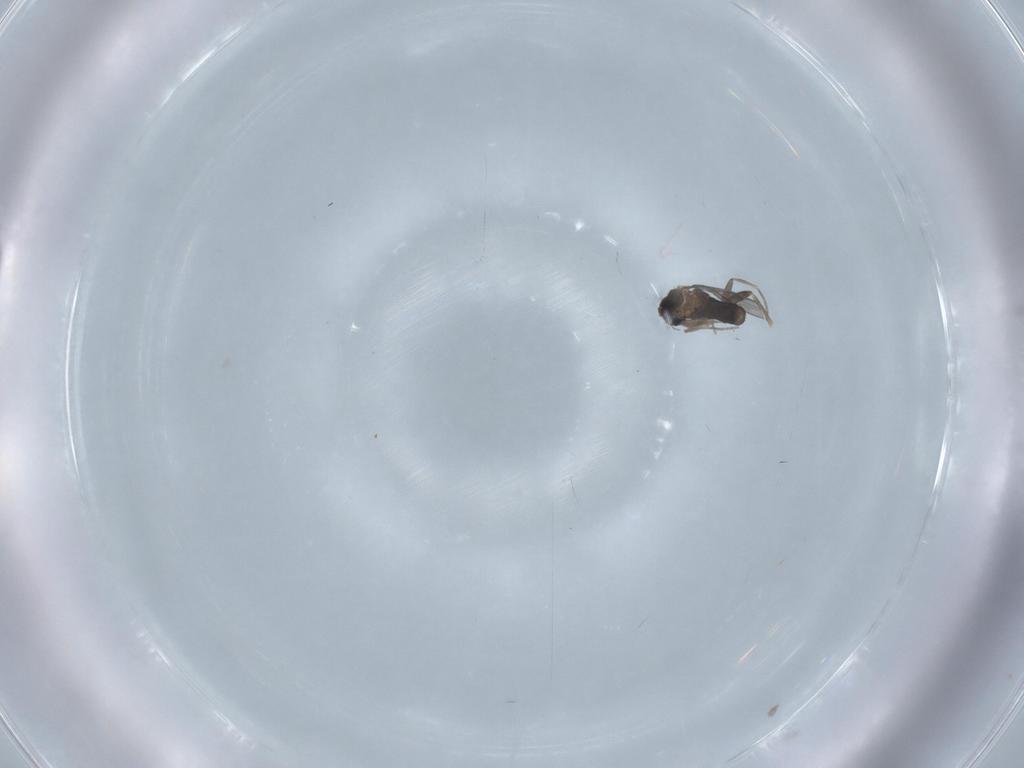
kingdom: Animalia
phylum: Arthropoda
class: Insecta
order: Diptera
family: Chironomidae
